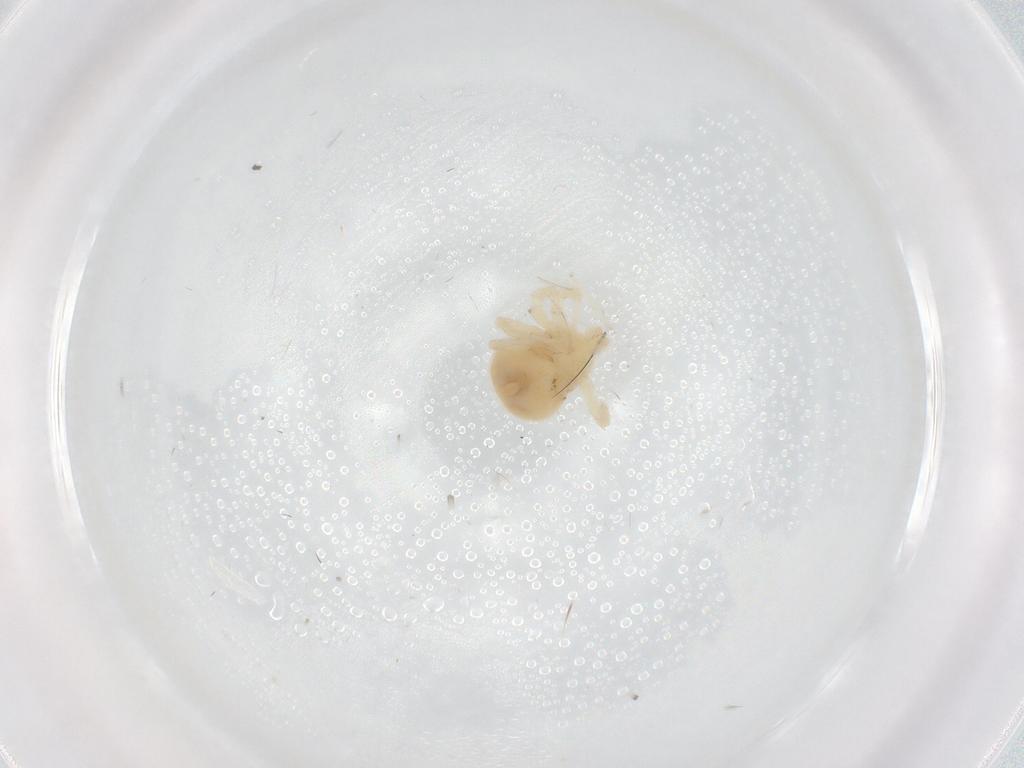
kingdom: Animalia
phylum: Arthropoda
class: Arachnida
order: Trombidiformes
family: Anystidae
